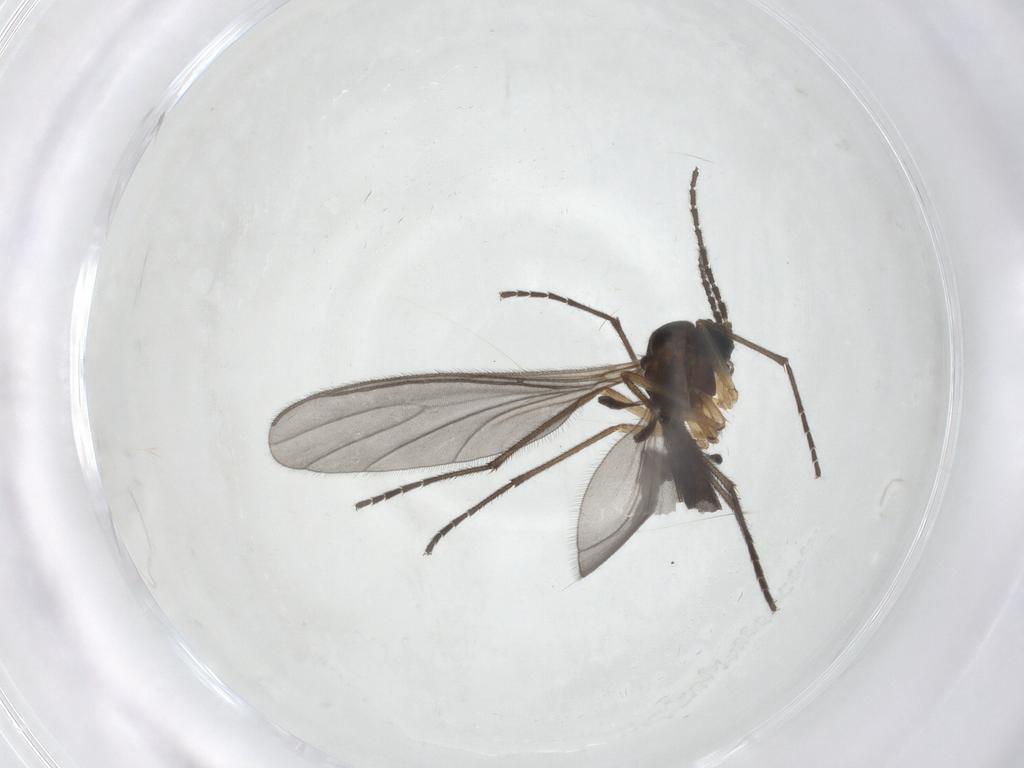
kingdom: Animalia
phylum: Arthropoda
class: Insecta
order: Diptera
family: Sciaridae
